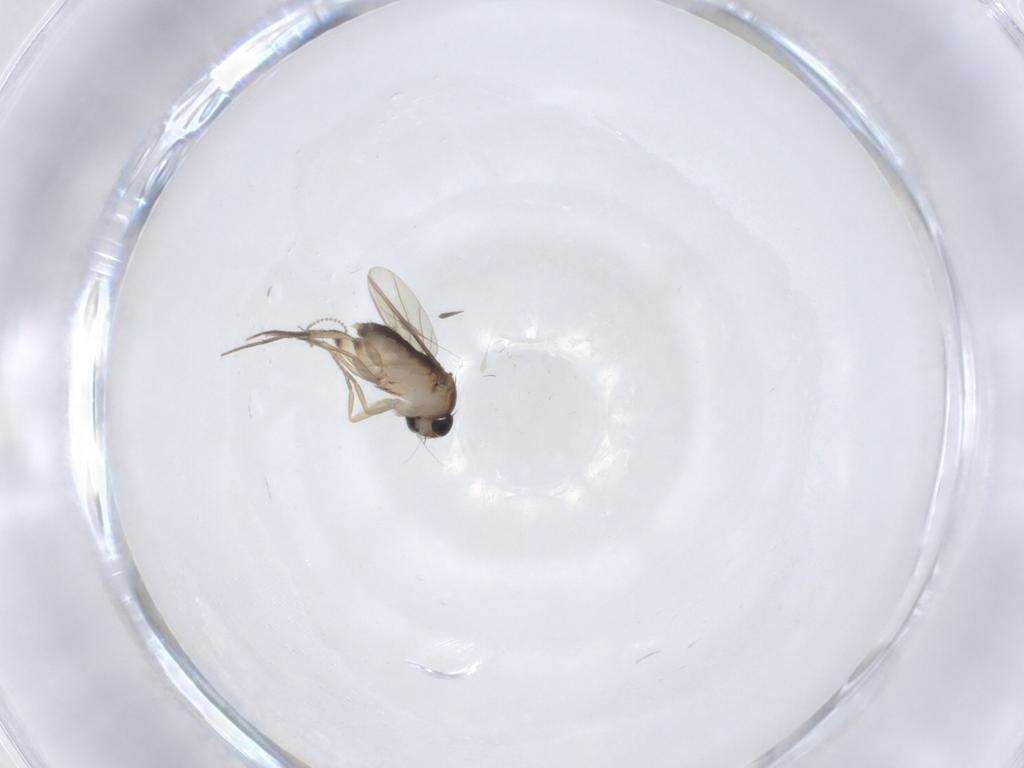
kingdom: Animalia
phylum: Arthropoda
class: Insecta
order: Diptera
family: Phoridae
